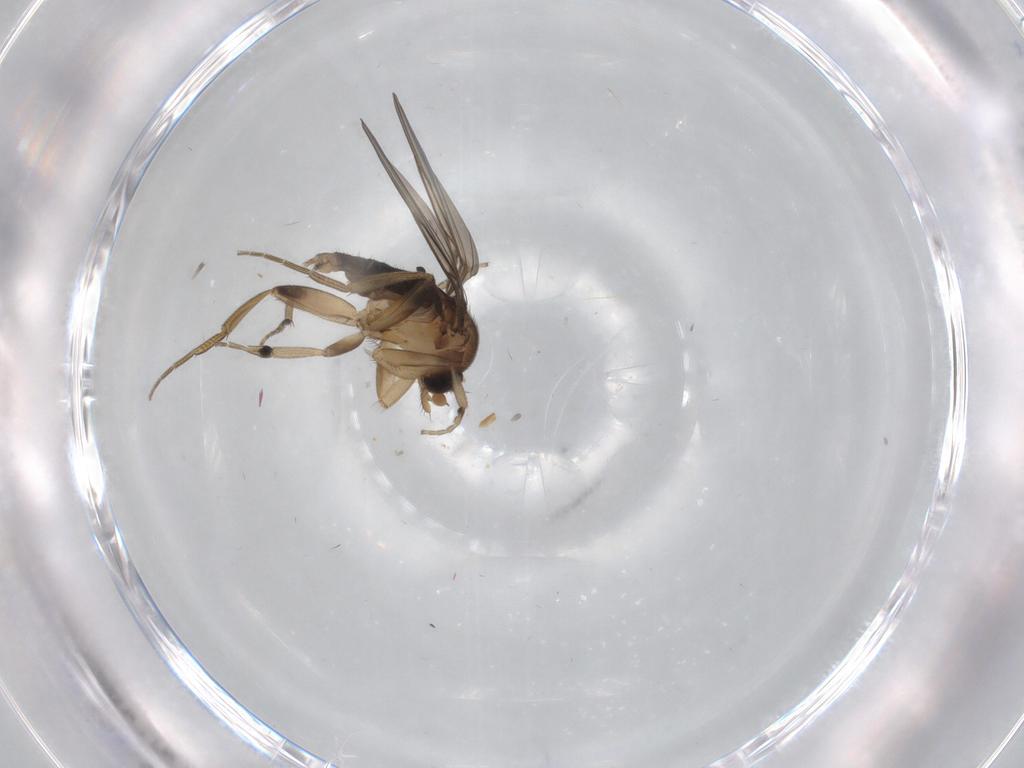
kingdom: Animalia
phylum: Arthropoda
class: Insecta
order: Diptera
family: Phoridae
